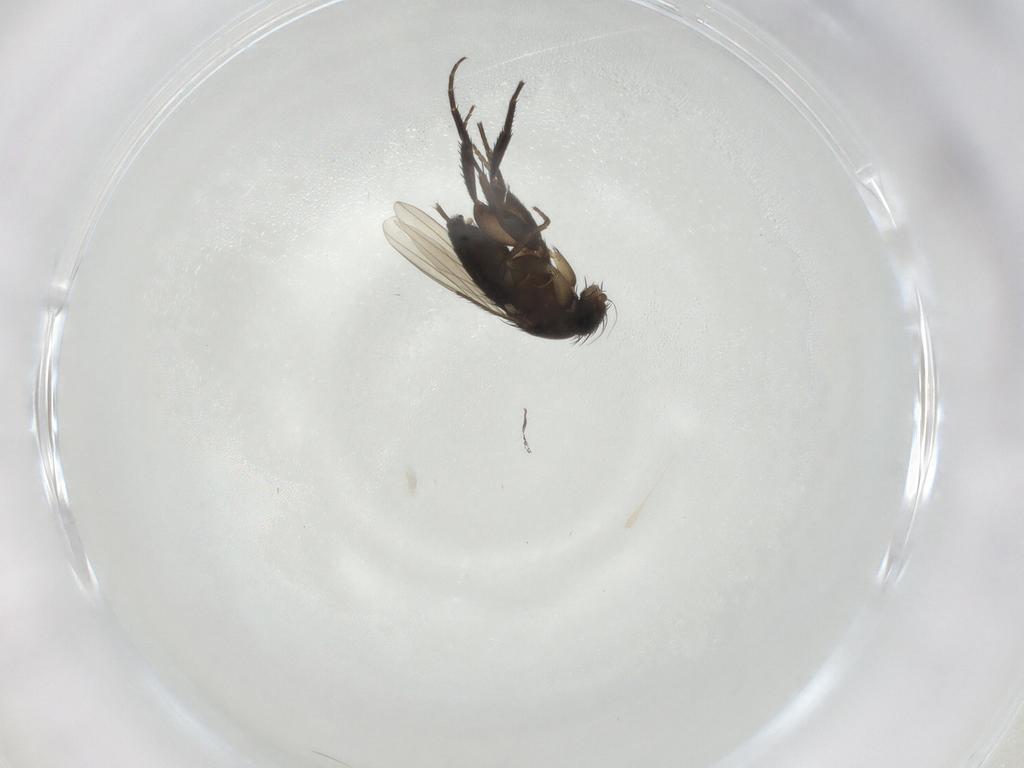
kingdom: Animalia
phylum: Arthropoda
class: Insecta
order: Diptera
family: Phoridae
